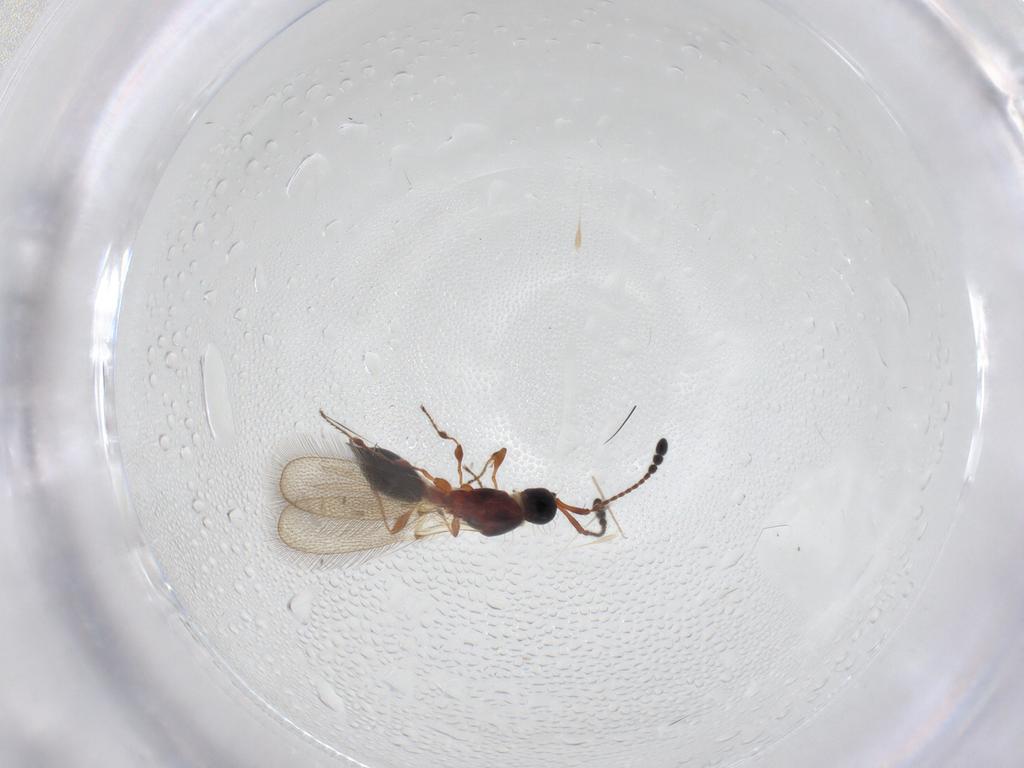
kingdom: Animalia
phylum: Arthropoda
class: Insecta
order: Hymenoptera
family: Diapriidae
